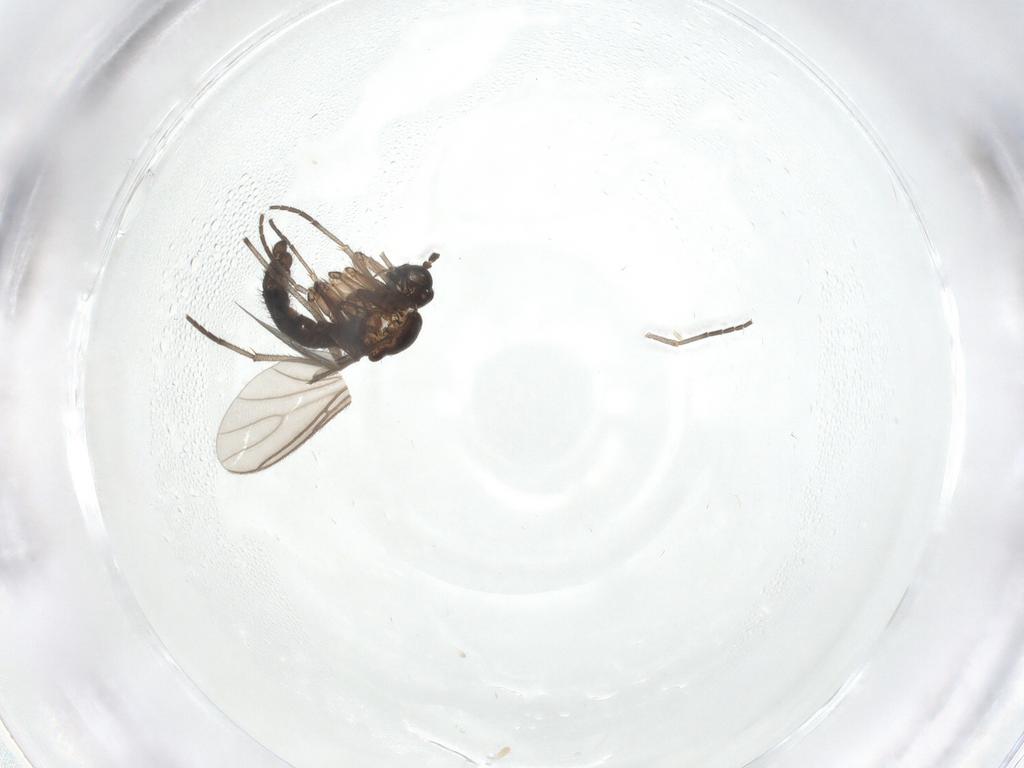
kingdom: Animalia
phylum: Arthropoda
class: Insecta
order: Diptera
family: Sciaridae
